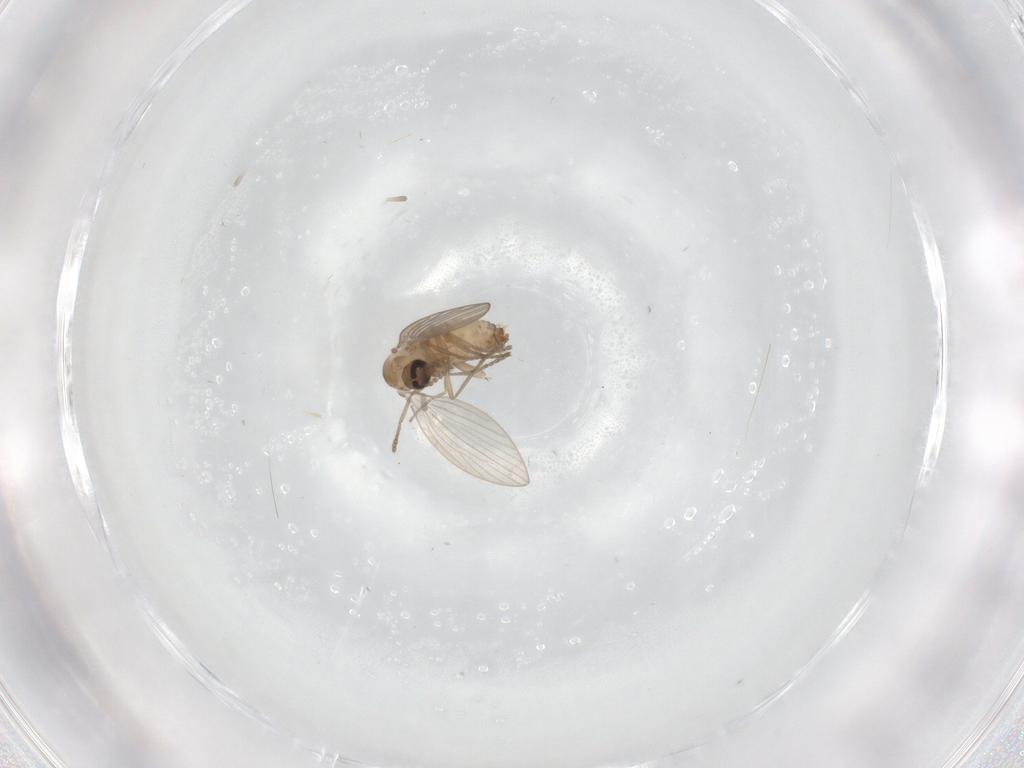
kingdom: Animalia
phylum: Arthropoda
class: Insecta
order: Diptera
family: Psychodidae
